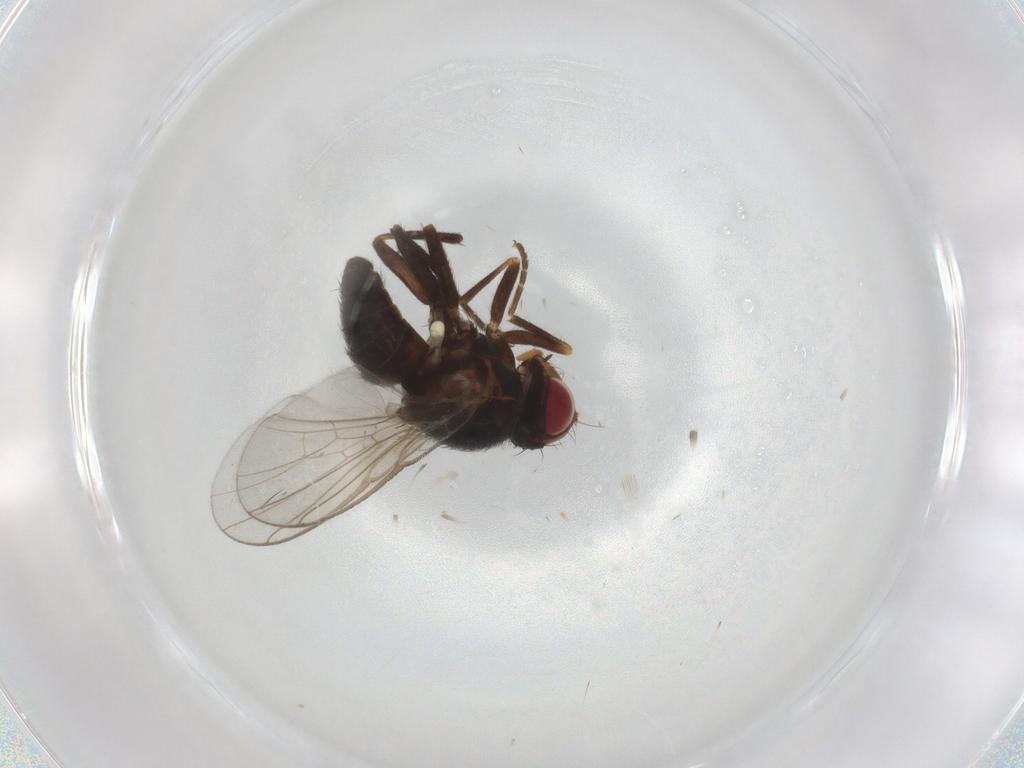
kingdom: Animalia
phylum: Arthropoda
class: Insecta
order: Diptera
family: Cecidomyiidae
